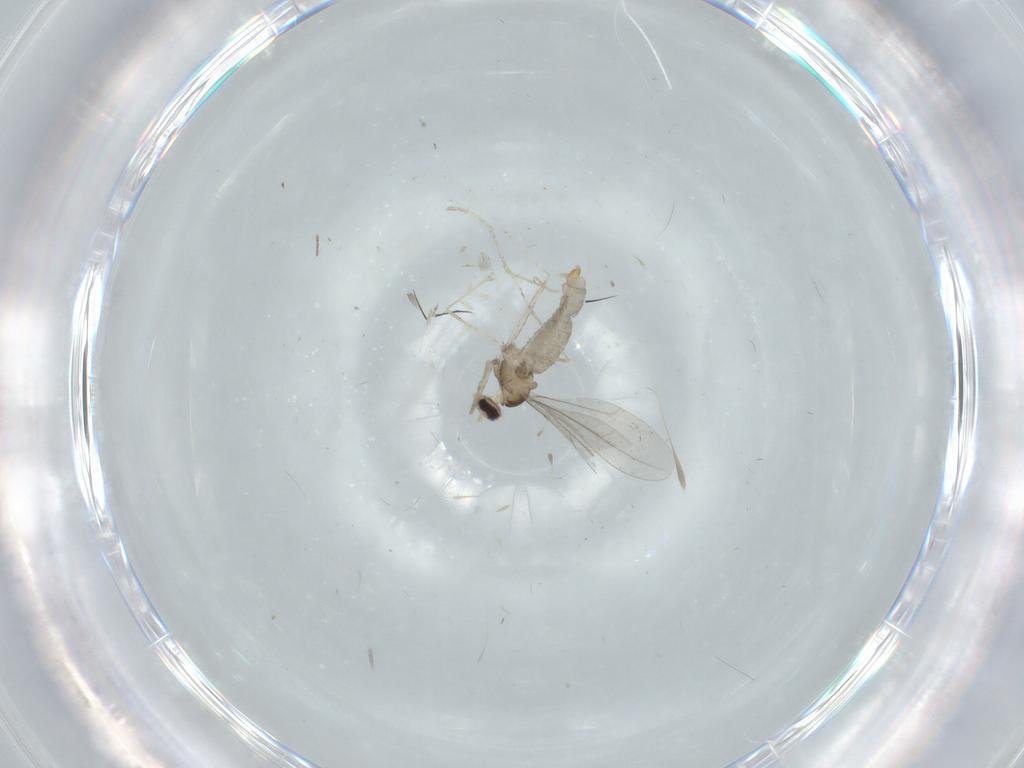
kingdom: Animalia
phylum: Arthropoda
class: Insecta
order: Diptera
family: Cecidomyiidae
